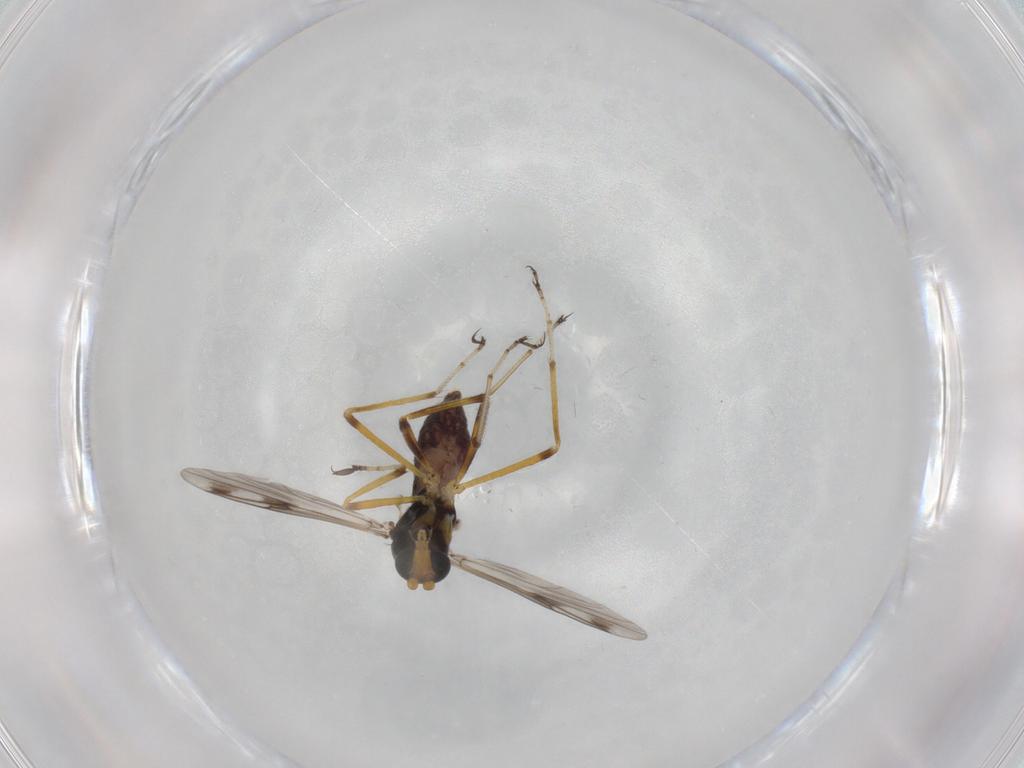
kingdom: Animalia
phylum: Arthropoda
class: Insecta
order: Diptera
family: Ceratopogonidae
